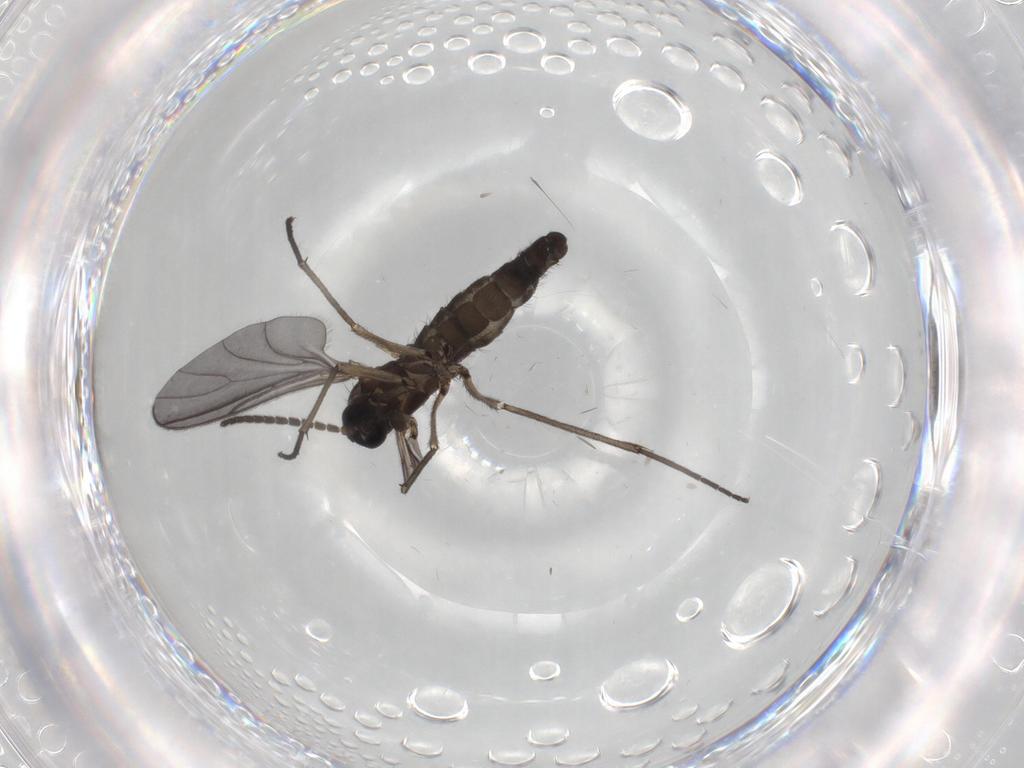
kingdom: Animalia
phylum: Arthropoda
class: Insecta
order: Diptera
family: Sciaridae
